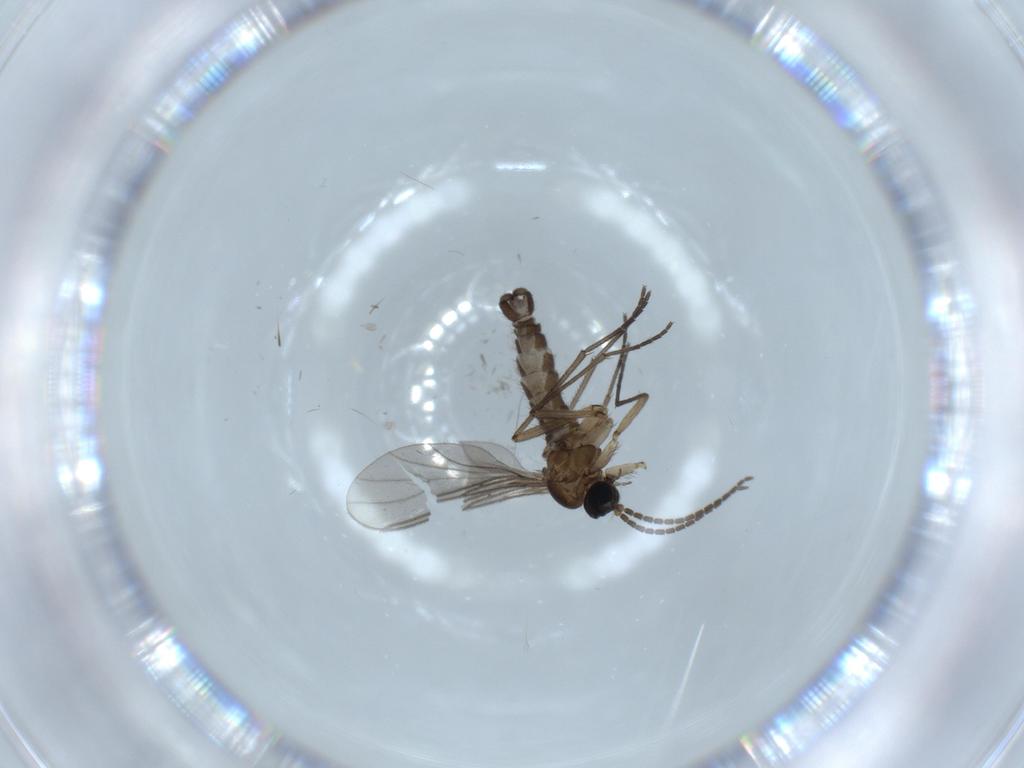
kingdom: Animalia
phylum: Arthropoda
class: Insecta
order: Diptera
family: Sciaridae
